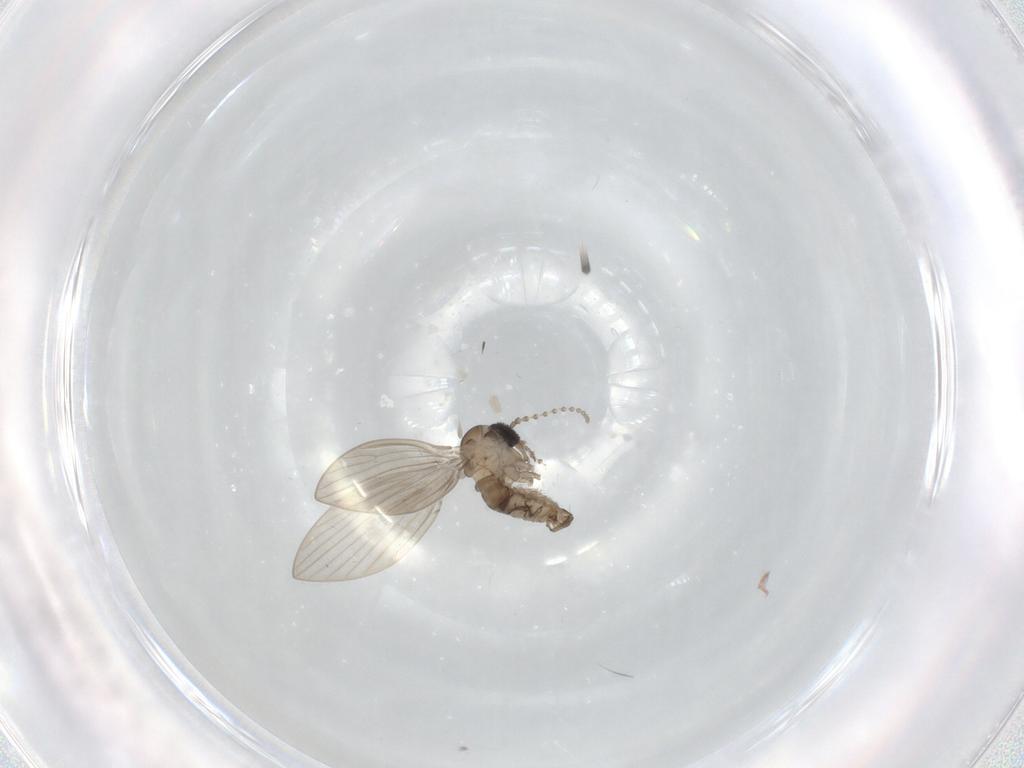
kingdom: Animalia
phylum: Arthropoda
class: Insecta
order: Diptera
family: Psychodidae
